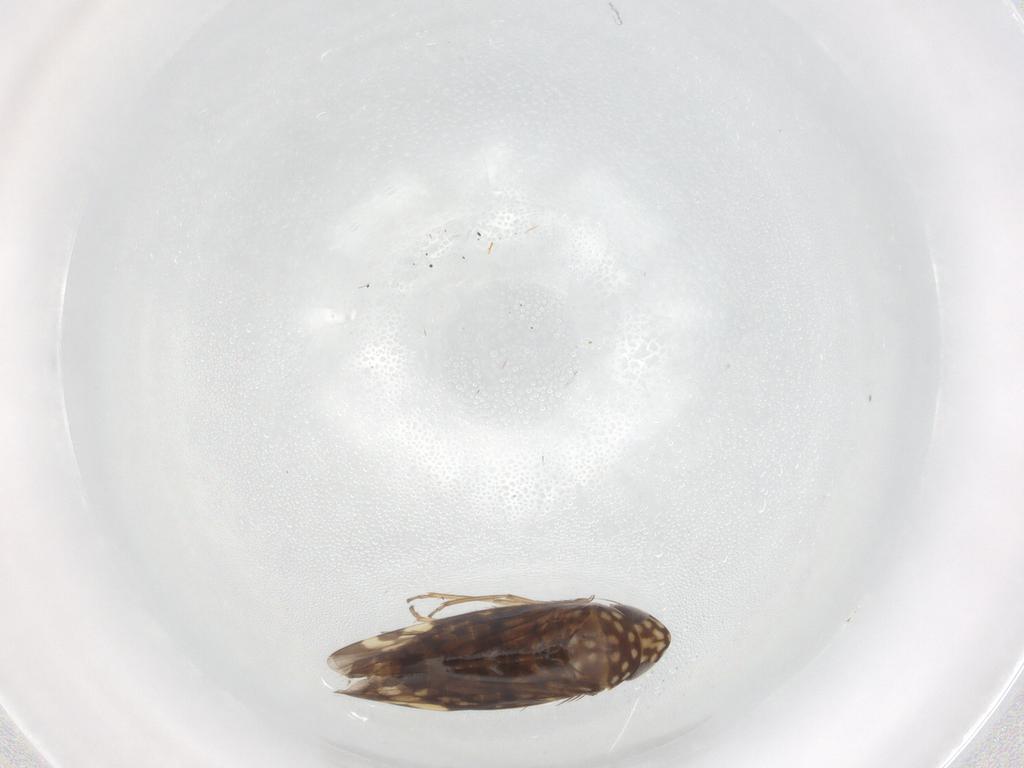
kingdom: Animalia
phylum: Arthropoda
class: Insecta
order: Hemiptera
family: Cicadellidae
